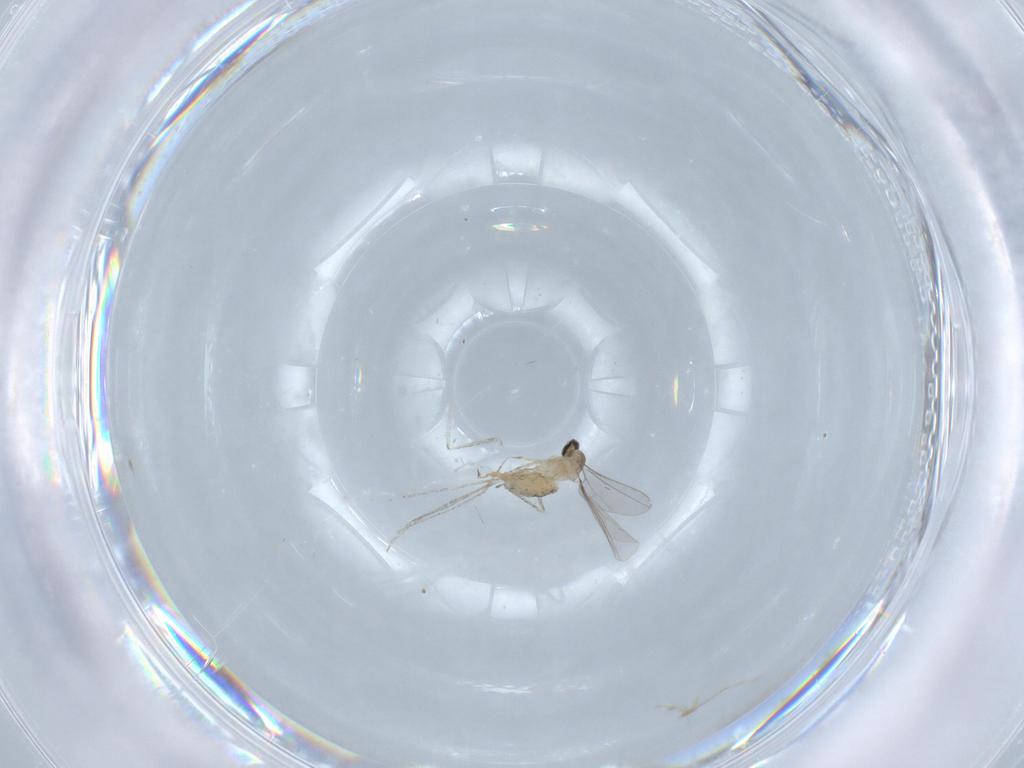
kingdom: Animalia
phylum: Arthropoda
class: Insecta
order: Diptera
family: Cecidomyiidae
